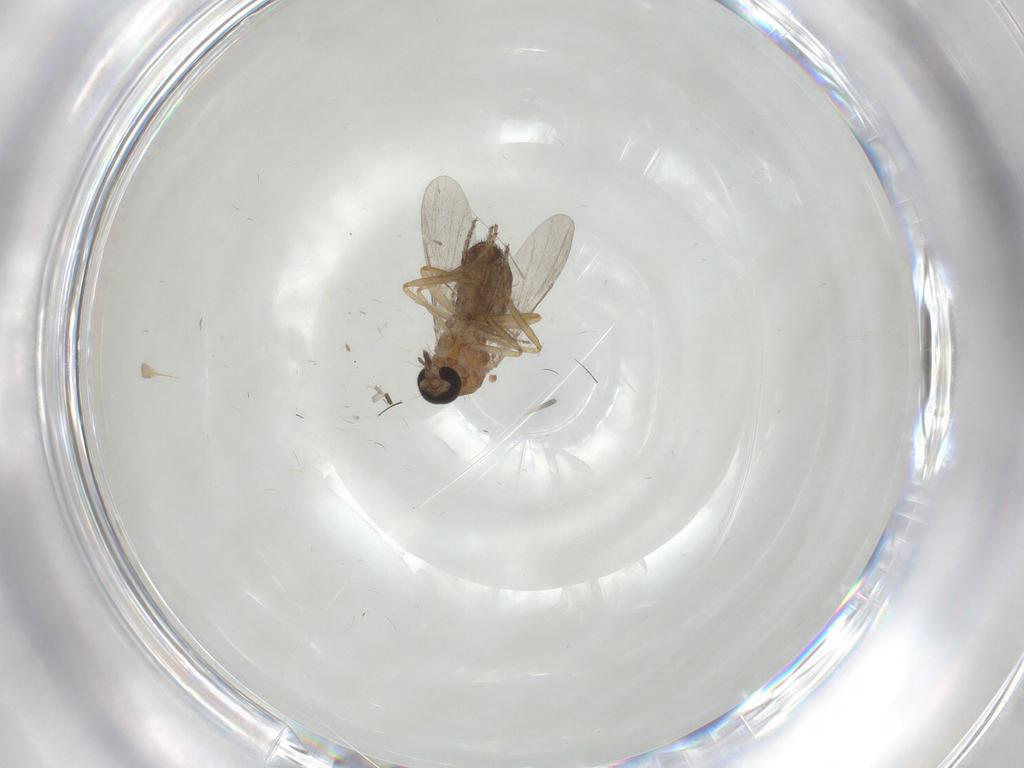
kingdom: Animalia
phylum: Arthropoda
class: Insecta
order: Diptera
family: Ceratopogonidae
